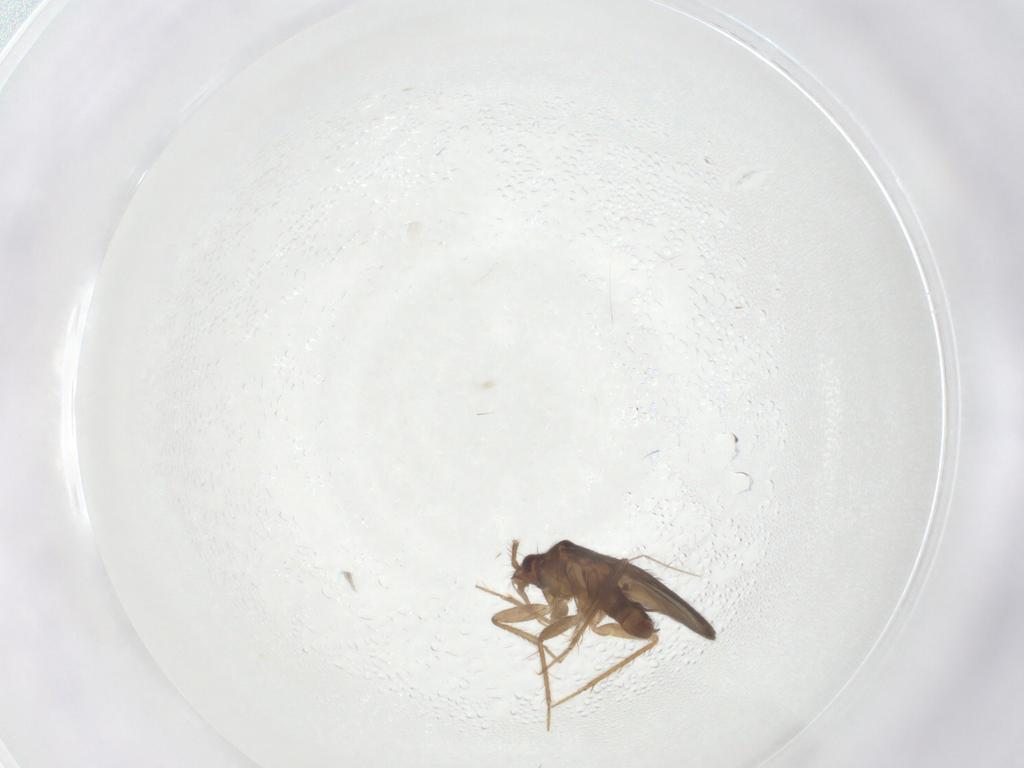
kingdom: Animalia
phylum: Arthropoda
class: Insecta
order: Hemiptera
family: Ceratocombidae
